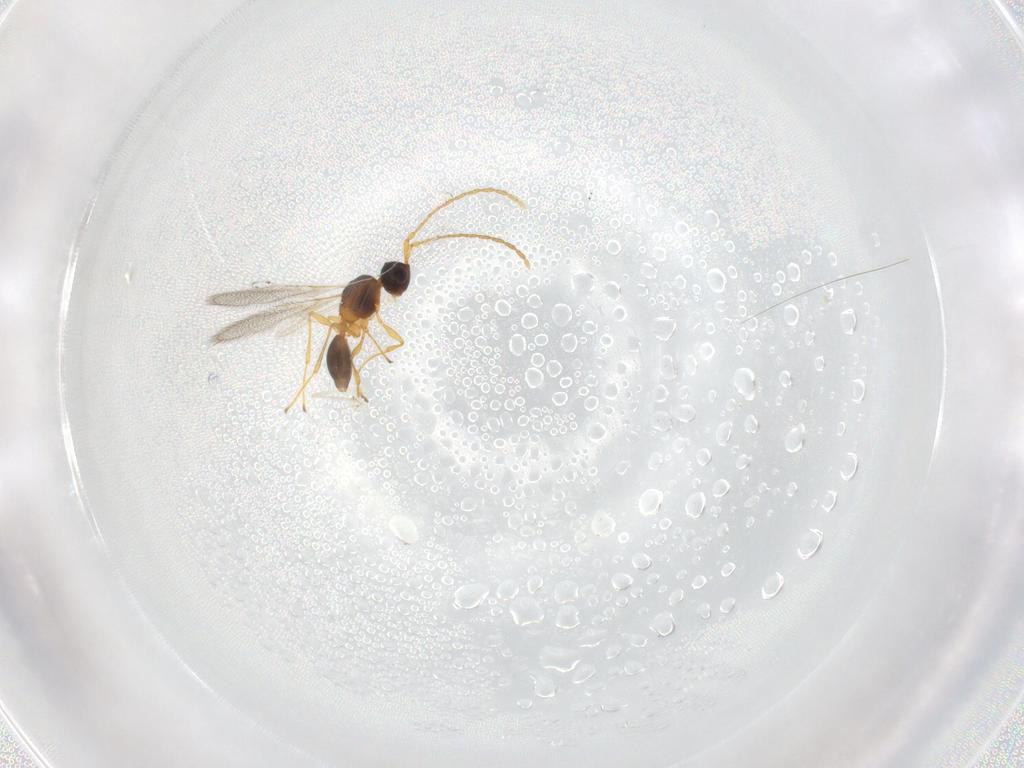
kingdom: Animalia
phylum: Arthropoda
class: Insecta
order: Hymenoptera
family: Diapriidae
